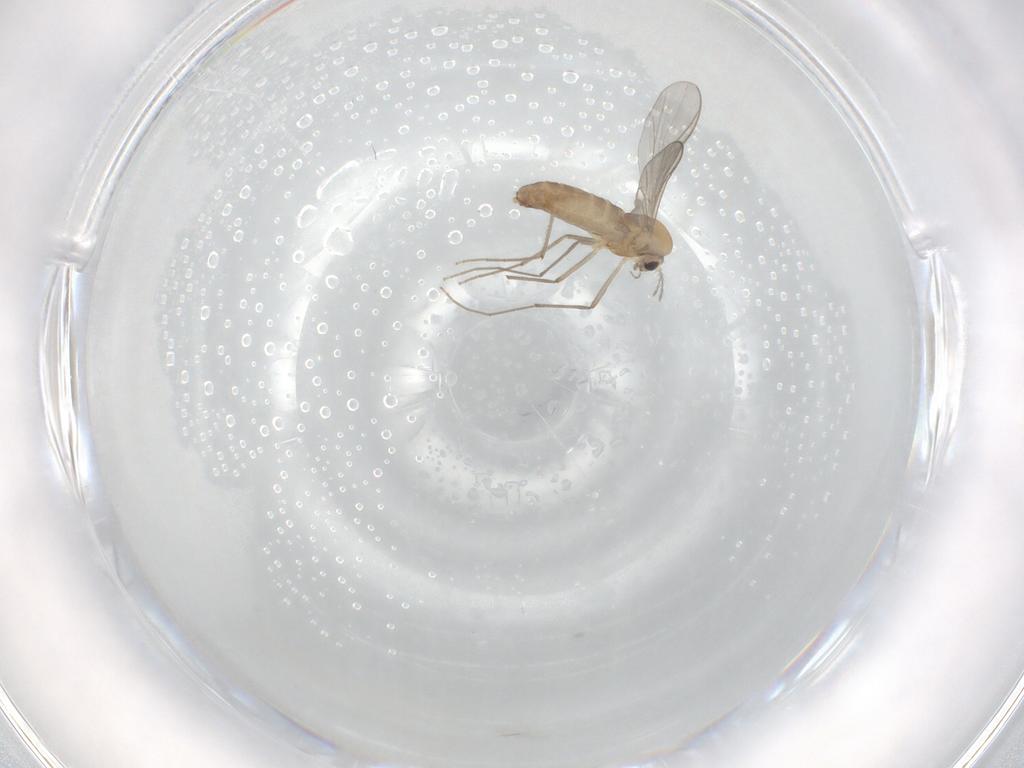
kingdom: Animalia
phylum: Arthropoda
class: Insecta
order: Diptera
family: Chironomidae
